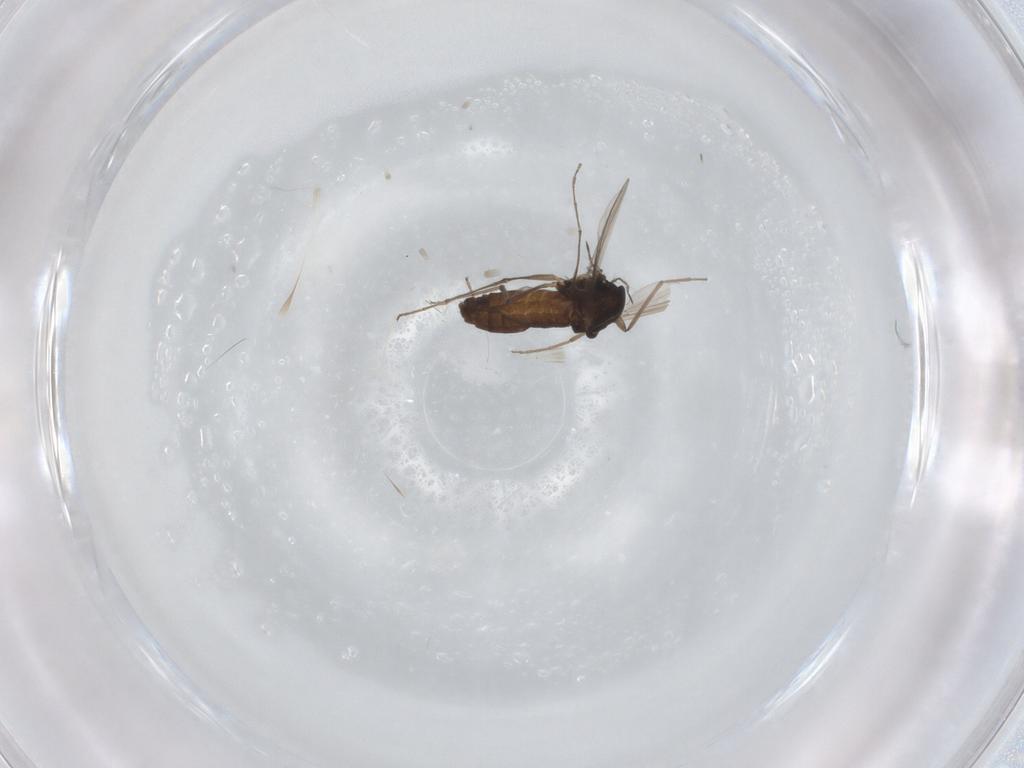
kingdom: Animalia
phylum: Arthropoda
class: Insecta
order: Diptera
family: Chironomidae
